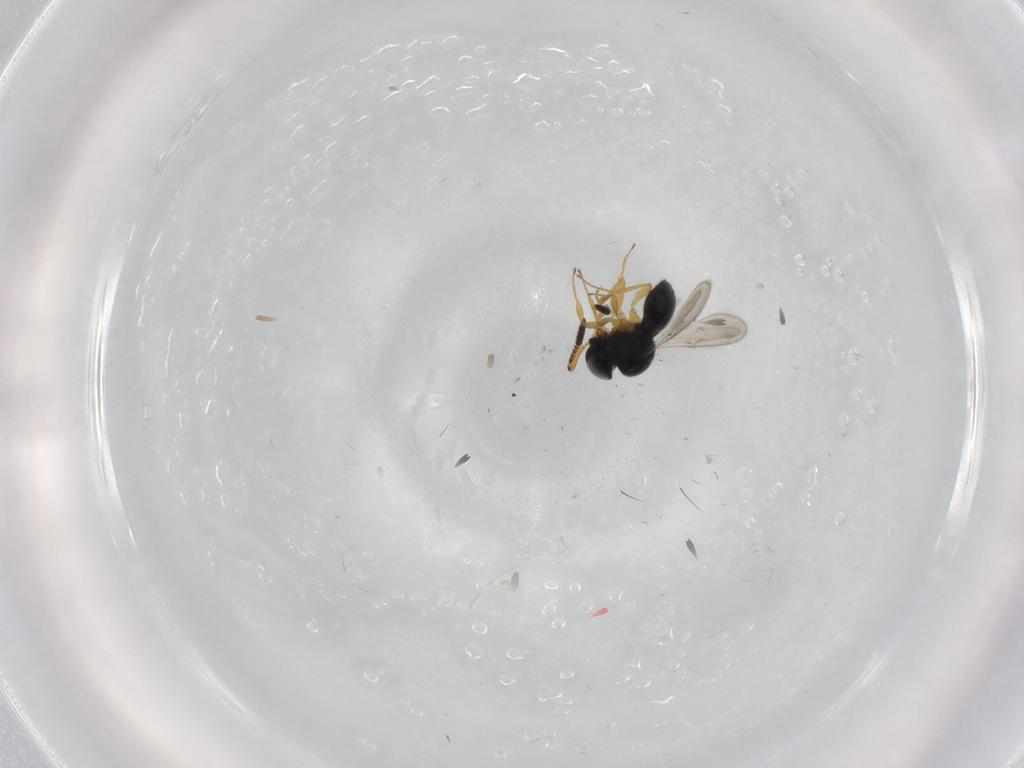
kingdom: Animalia
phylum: Arthropoda
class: Insecta
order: Hymenoptera
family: Scelionidae
